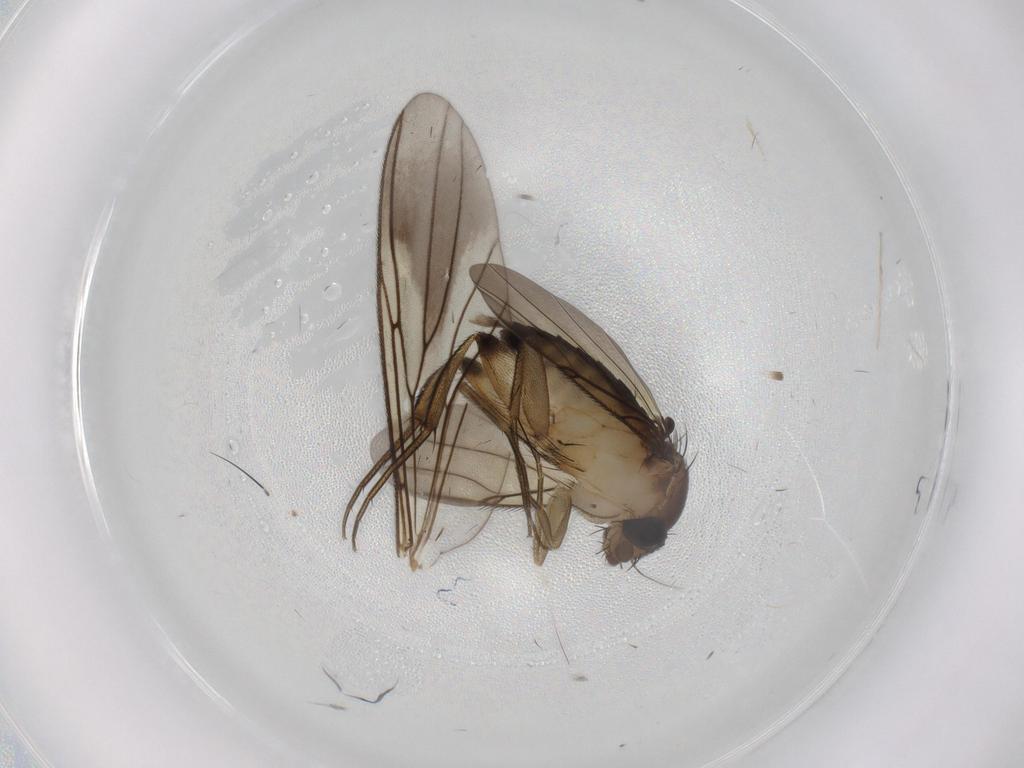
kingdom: Animalia
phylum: Arthropoda
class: Insecta
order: Diptera
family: Mycetophilidae
